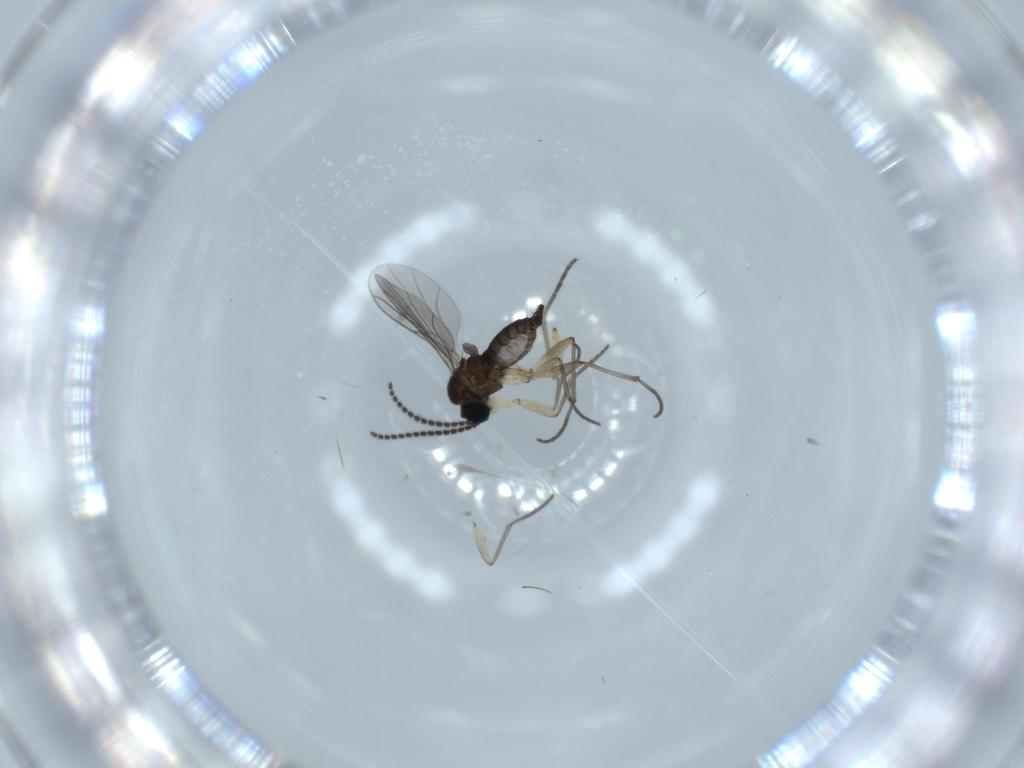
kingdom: Animalia
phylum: Arthropoda
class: Insecta
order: Diptera
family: Sciaridae
